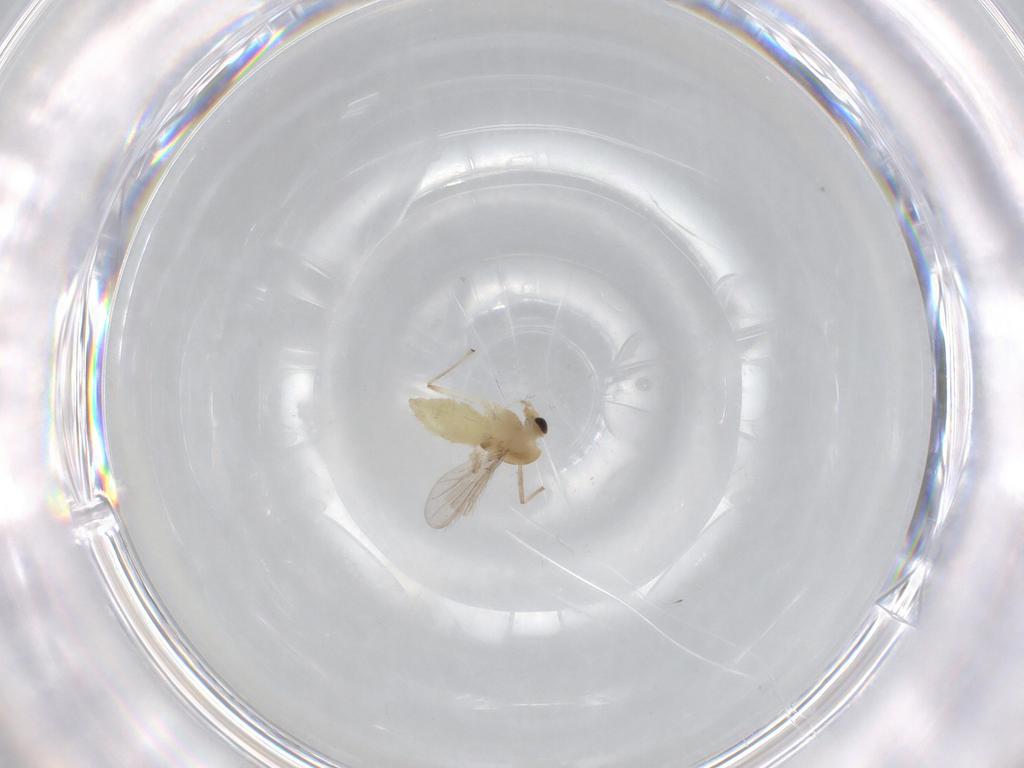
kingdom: Animalia
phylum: Arthropoda
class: Insecta
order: Diptera
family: Chironomidae
